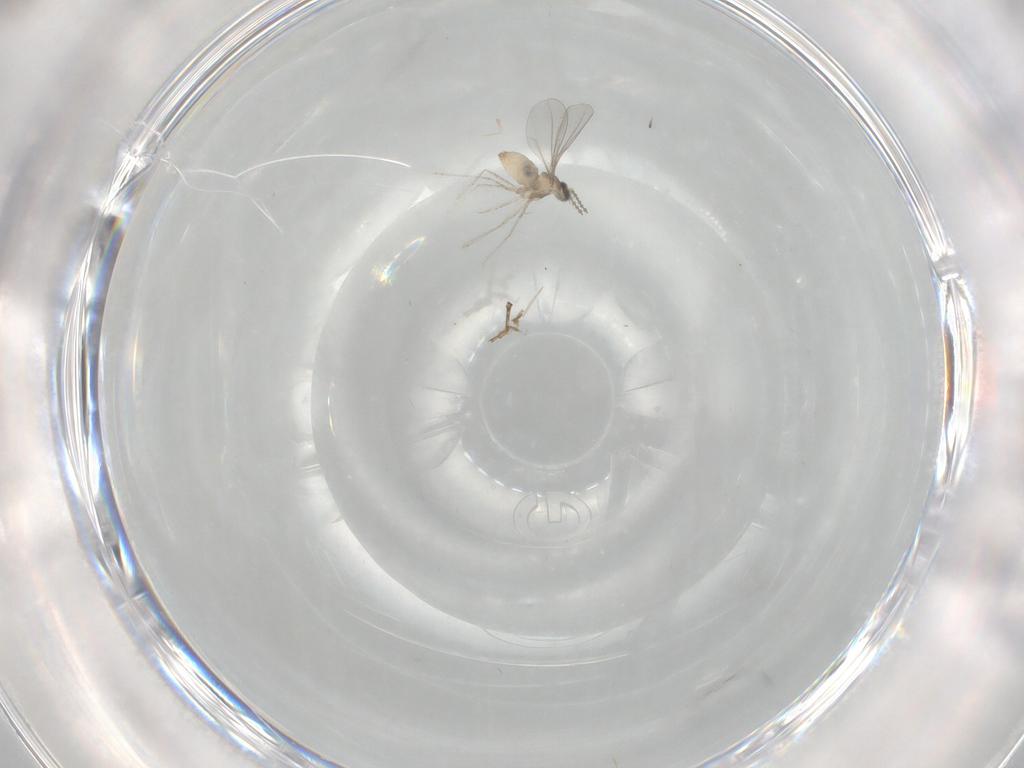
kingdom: Animalia
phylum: Arthropoda
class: Insecta
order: Diptera
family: Cecidomyiidae
